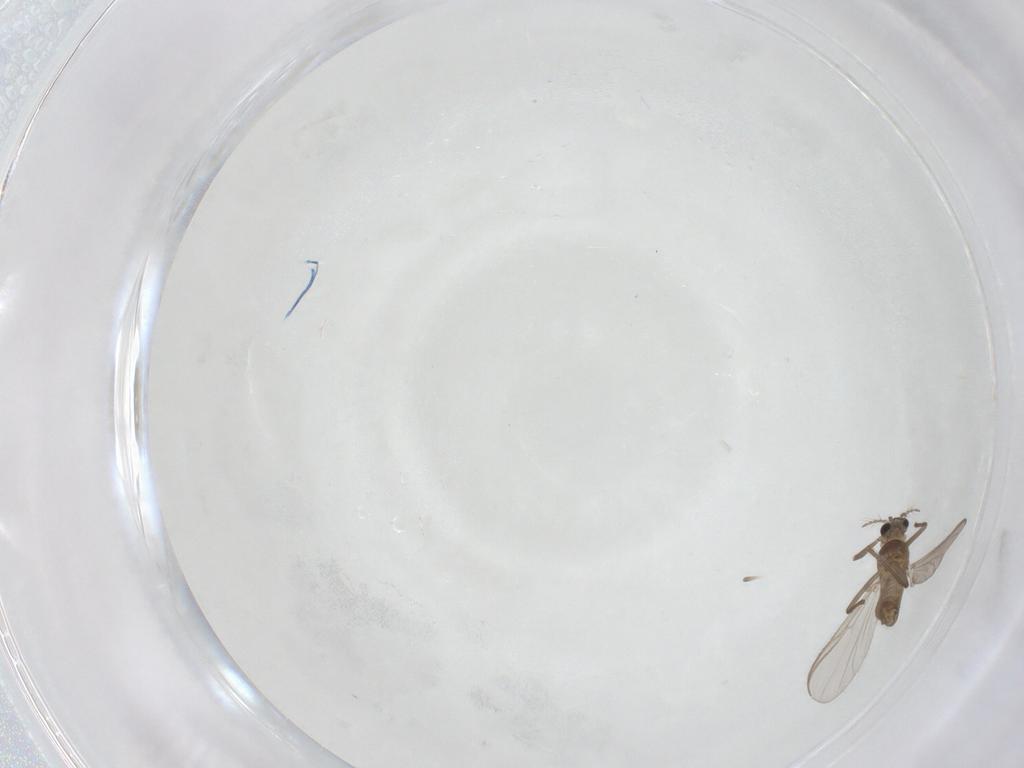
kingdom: Animalia
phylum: Arthropoda
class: Insecta
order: Diptera
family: Chironomidae
